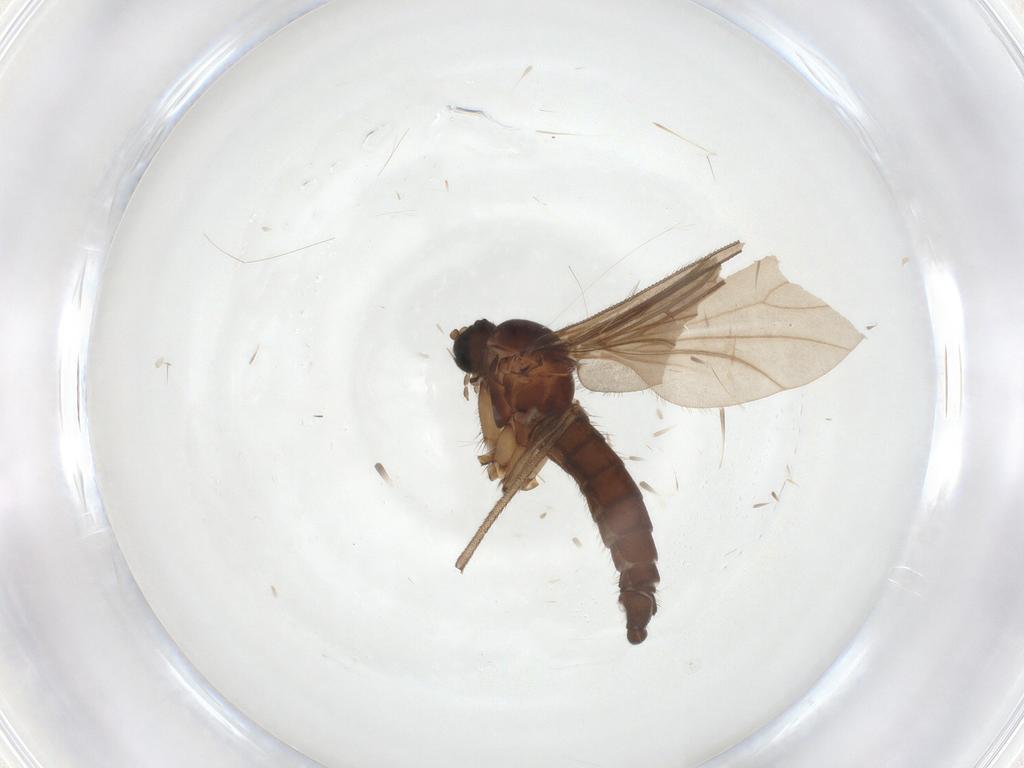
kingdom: Animalia
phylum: Arthropoda
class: Insecta
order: Diptera
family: Sciaridae
